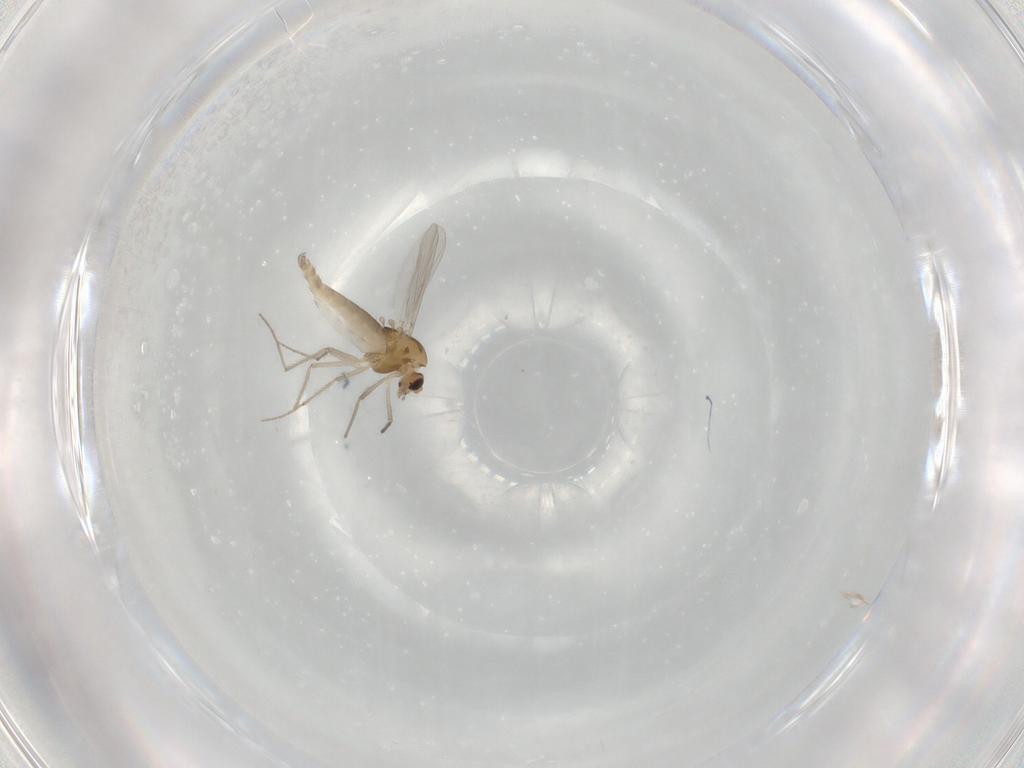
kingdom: Animalia
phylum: Arthropoda
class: Insecta
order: Diptera
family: Chironomidae
